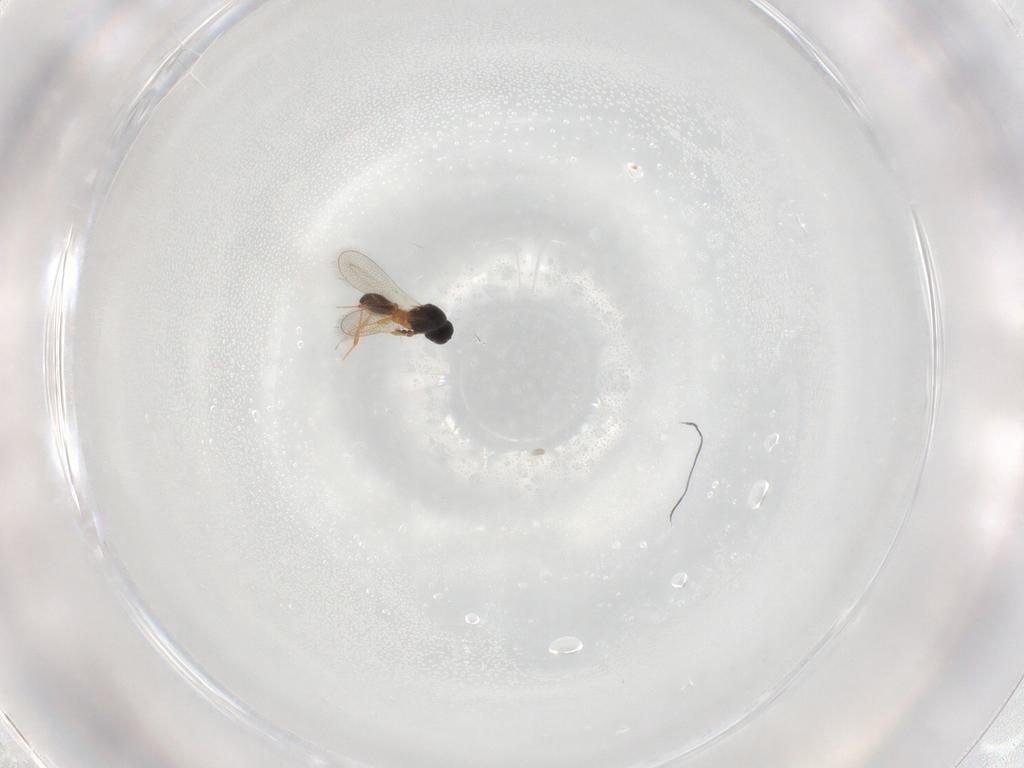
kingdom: Animalia
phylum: Arthropoda
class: Insecta
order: Hymenoptera
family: Platygastridae
